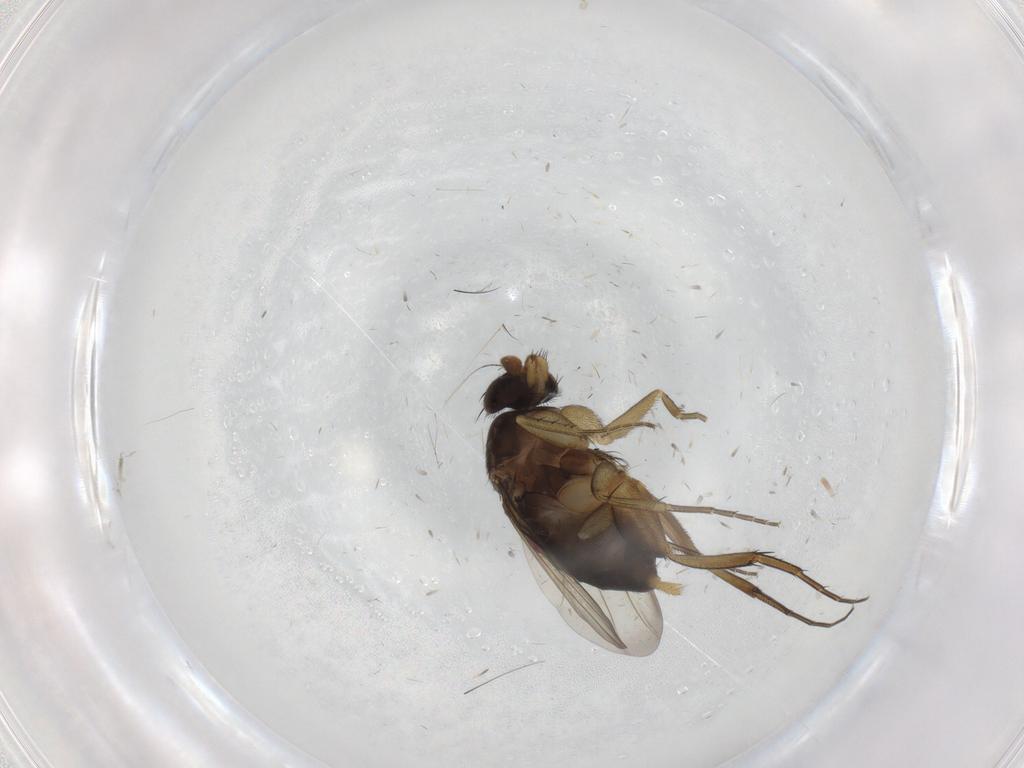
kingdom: Animalia
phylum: Arthropoda
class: Insecta
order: Diptera
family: Phoridae
